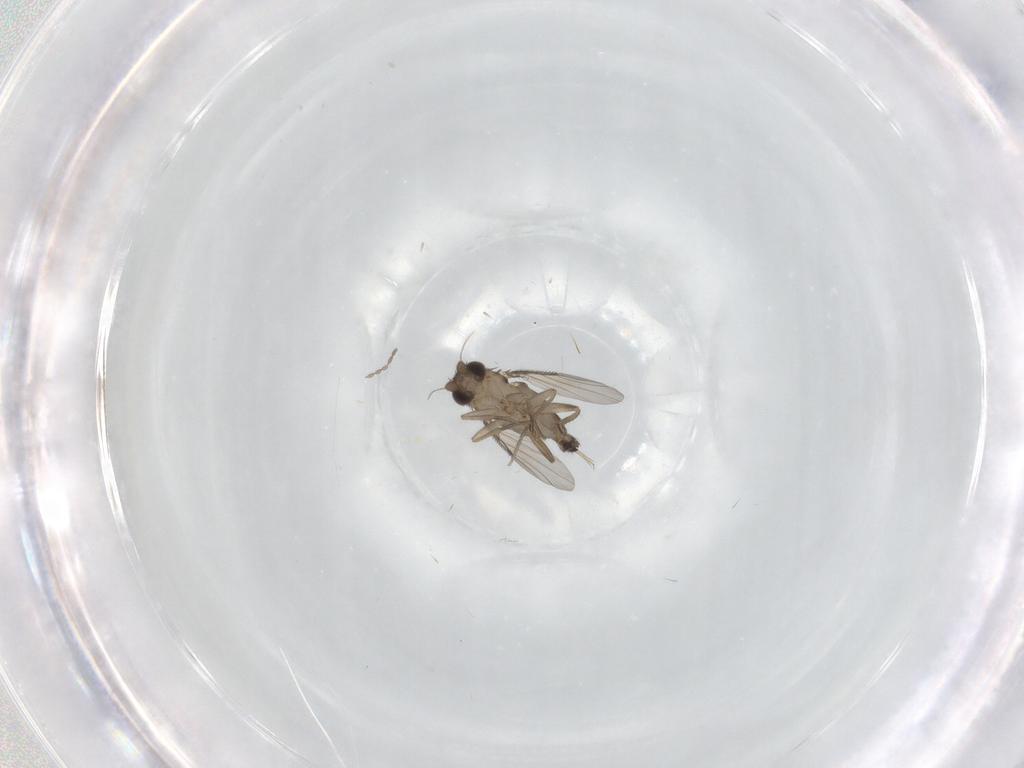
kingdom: Animalia
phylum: Arthropoda
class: Insecta
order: Diptera
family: Phoridae
